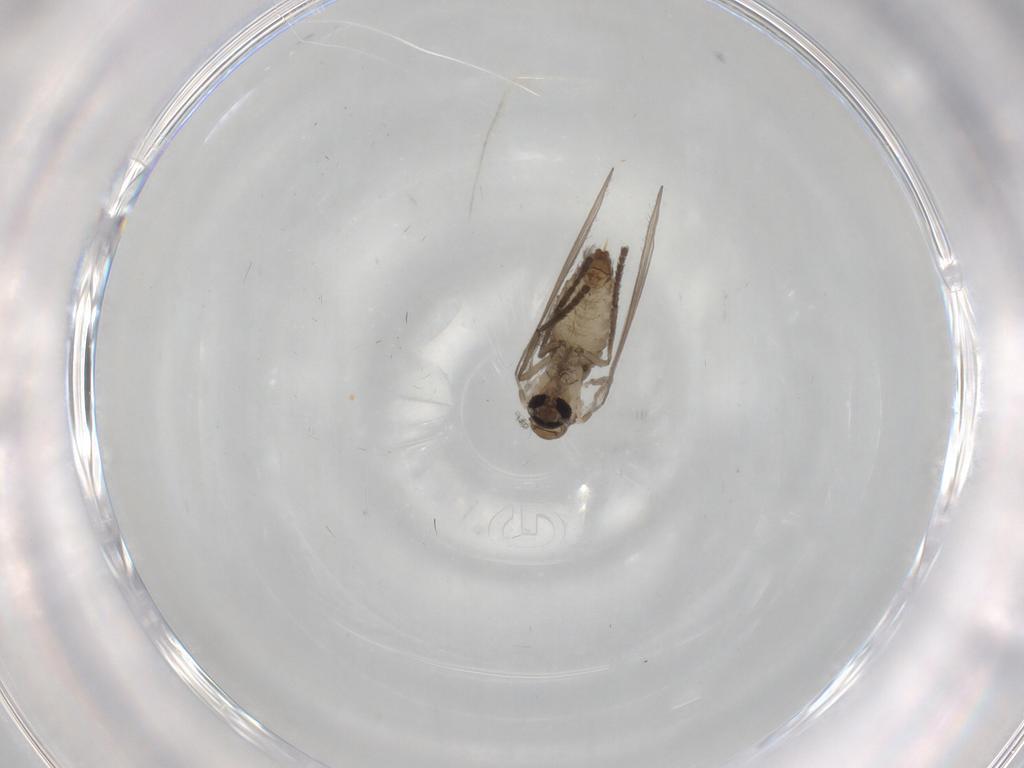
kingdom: Animalia
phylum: Arthropoda
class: Insecta
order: Diptera
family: Psychodidae
